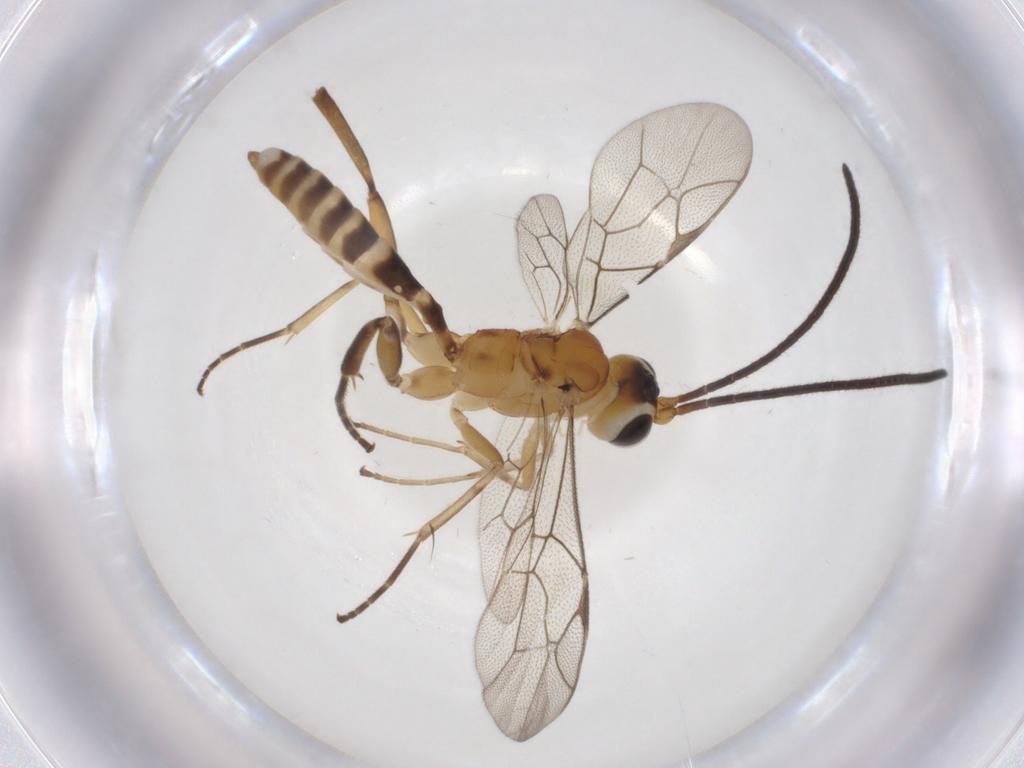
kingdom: Animalia
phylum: Arthropoda
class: Insecta
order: Hymenoptera
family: Ichneumonidae
